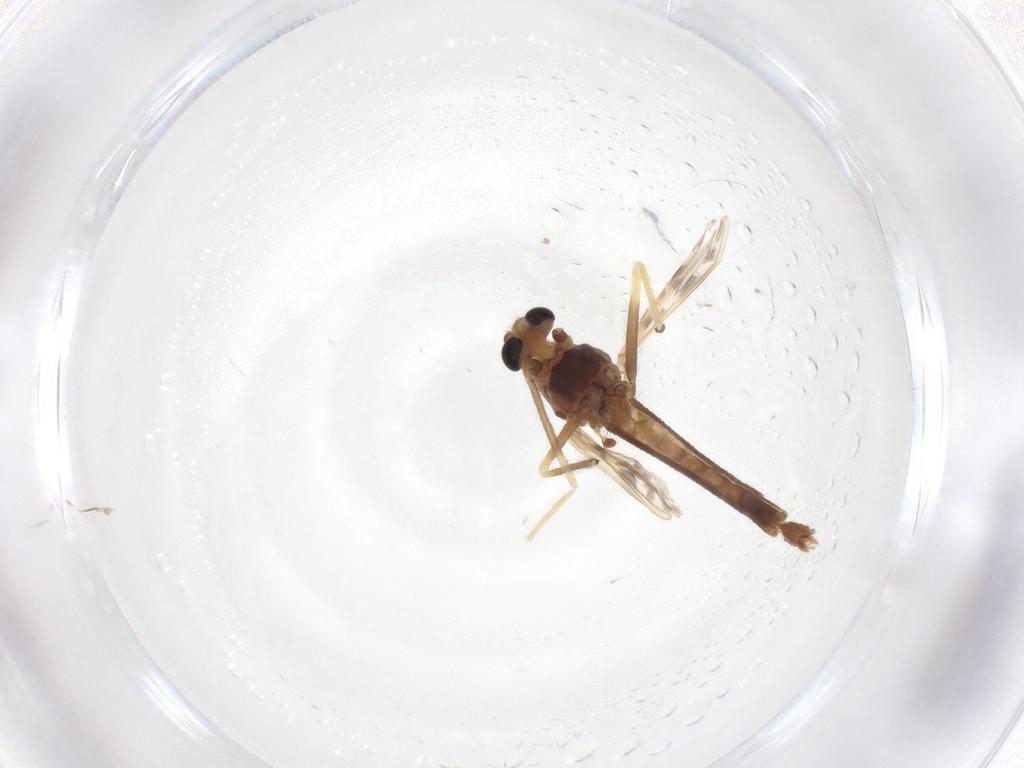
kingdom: Animalia
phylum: Arthropoda
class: Insecta
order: Diptera
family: Chironomidae
